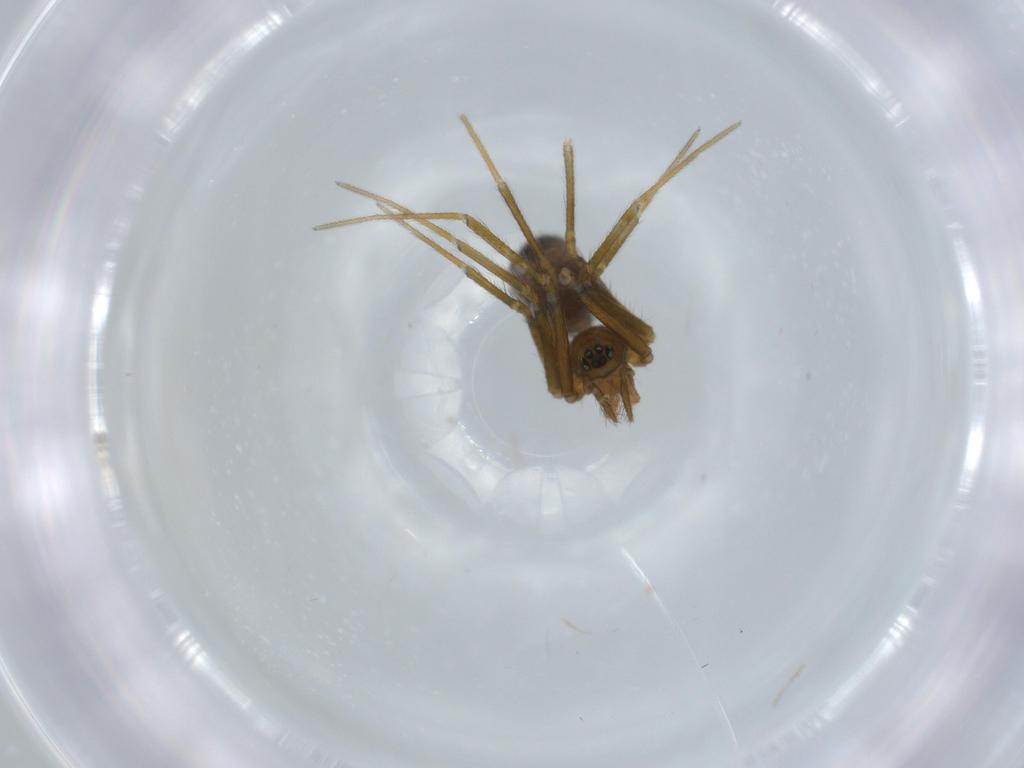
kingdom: Animalia
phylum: Arthropoda
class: Arachnida
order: Araneae
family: Linyphiidae
